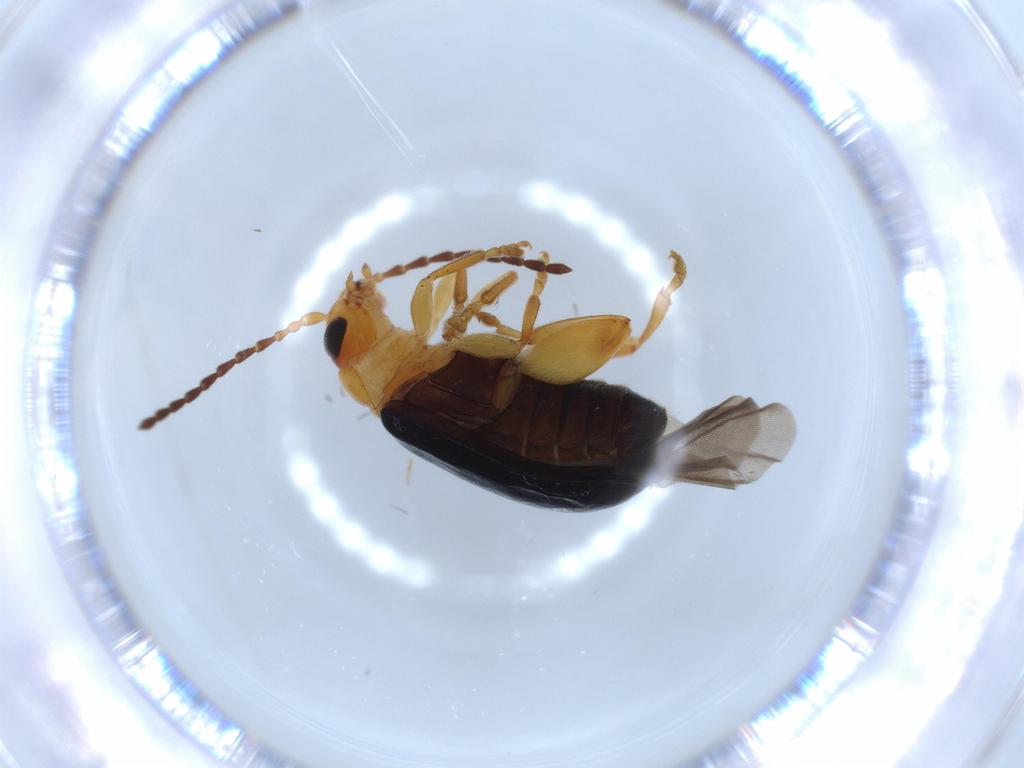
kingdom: Animalia
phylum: Arthropoda
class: Insecta
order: Coleoptera
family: Chrysomelidae
